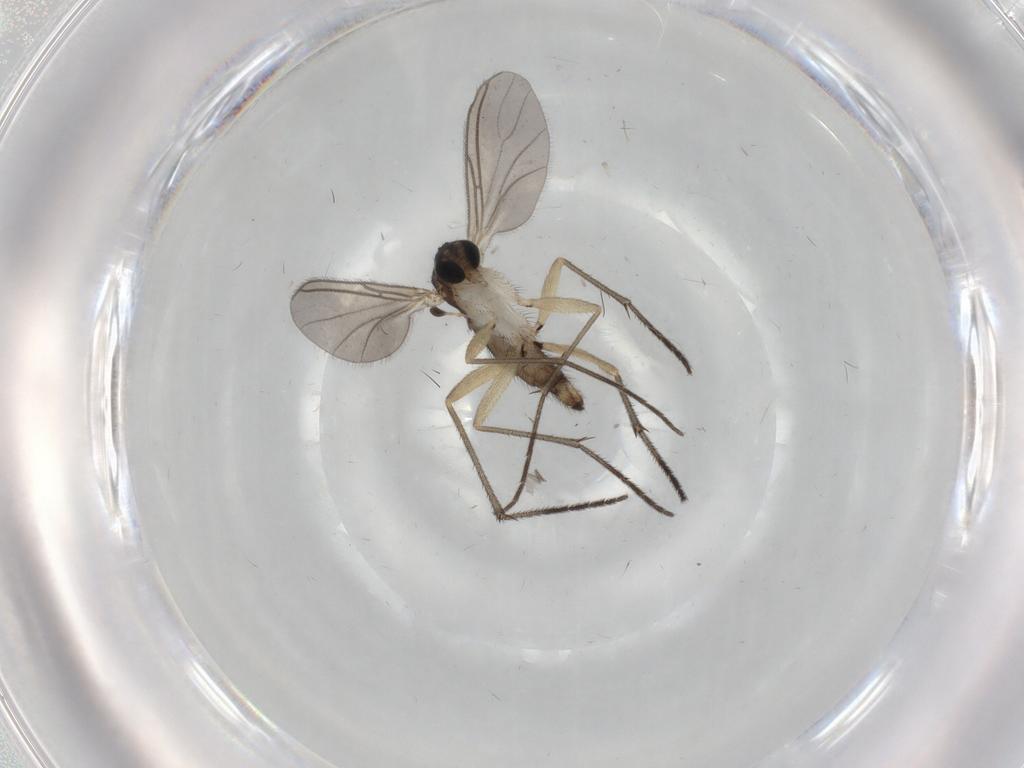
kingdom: Animalia
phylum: Arthropoda
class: Insecta
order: Diptera
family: Sciaridae
